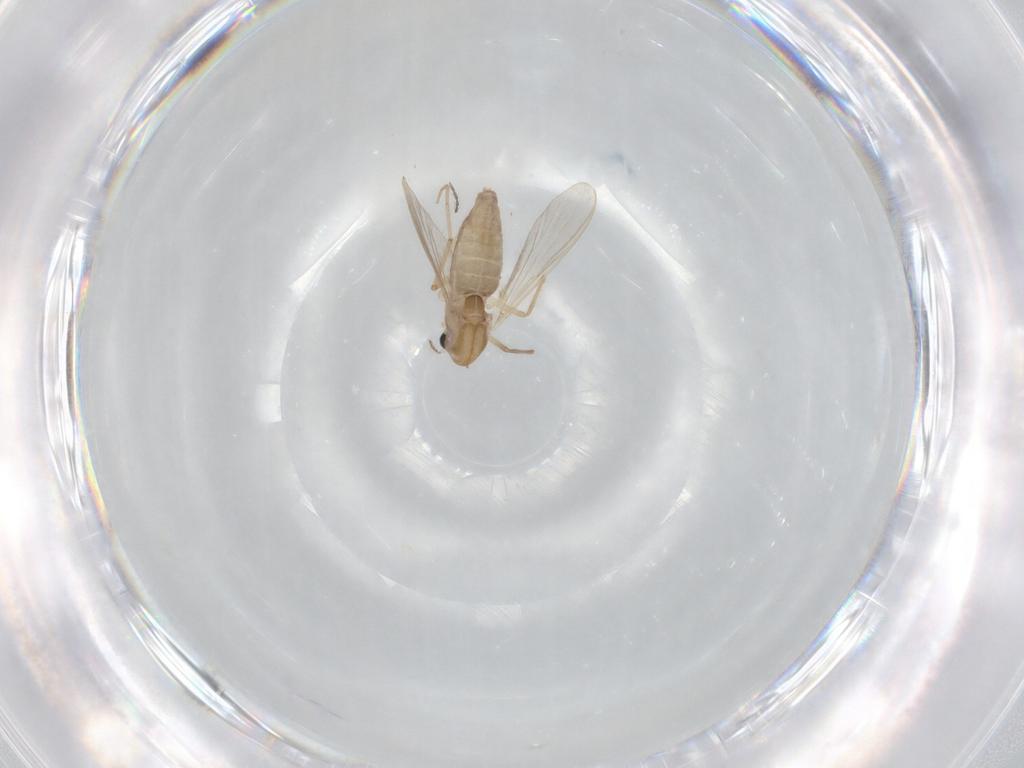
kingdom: Animalia
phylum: Arthropoda
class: Insecta
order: Diptera
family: Chironomidae
